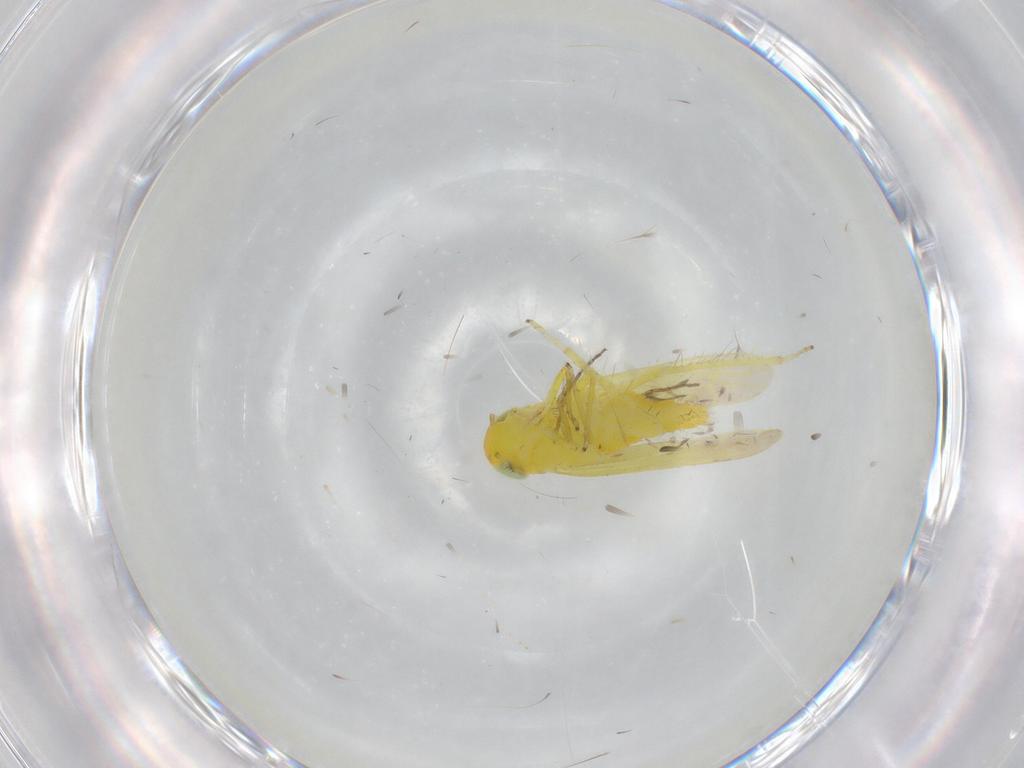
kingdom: Animalia
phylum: Arthropoda
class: Insecta
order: Hemiptera
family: Cicadellidae
